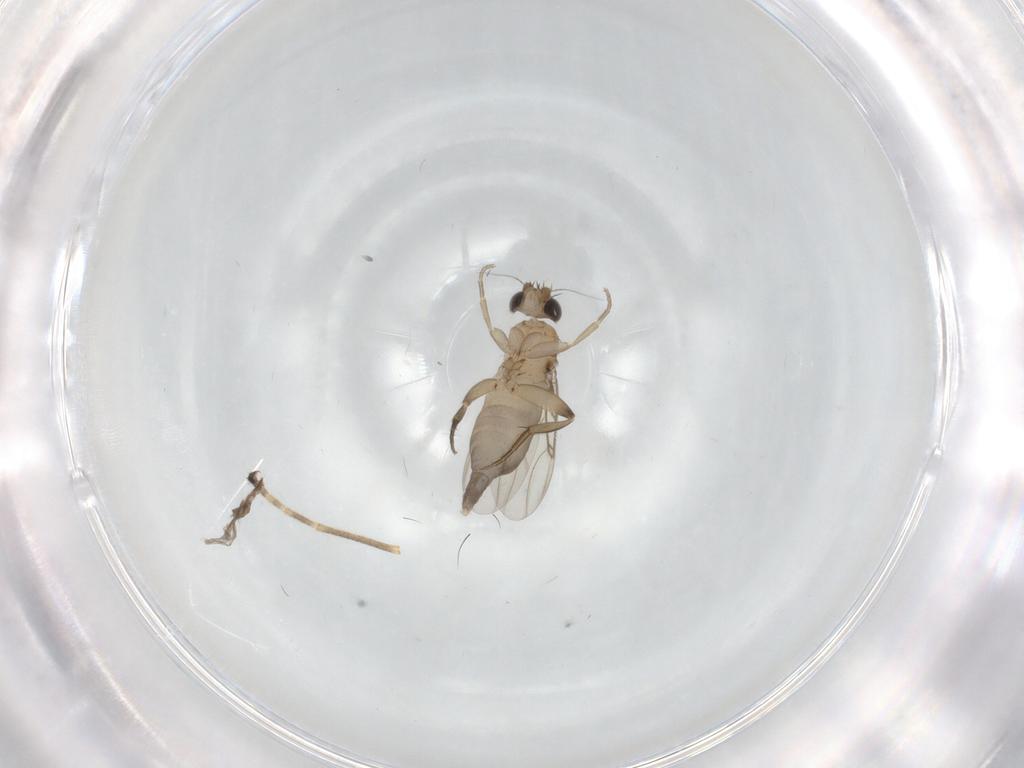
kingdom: Animalia
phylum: Arthropoda
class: Insecta
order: Diptera
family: Phoridae
